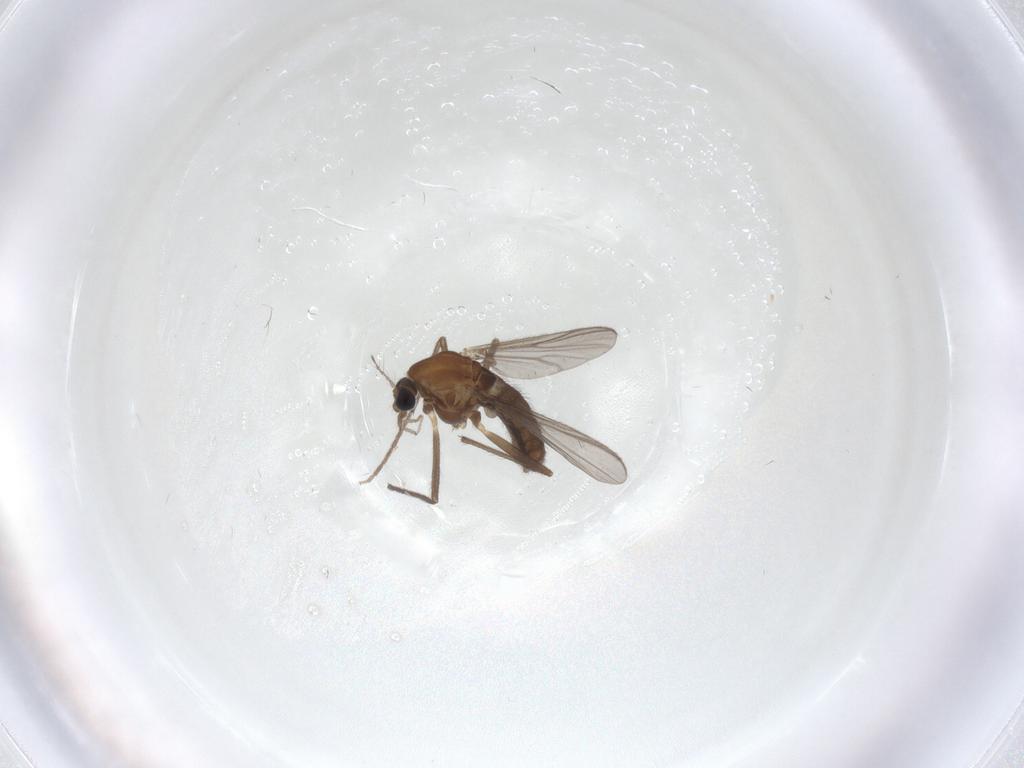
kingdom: Animalia
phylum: Arthropoda
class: Insecta
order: Diptera
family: Chironomidae
